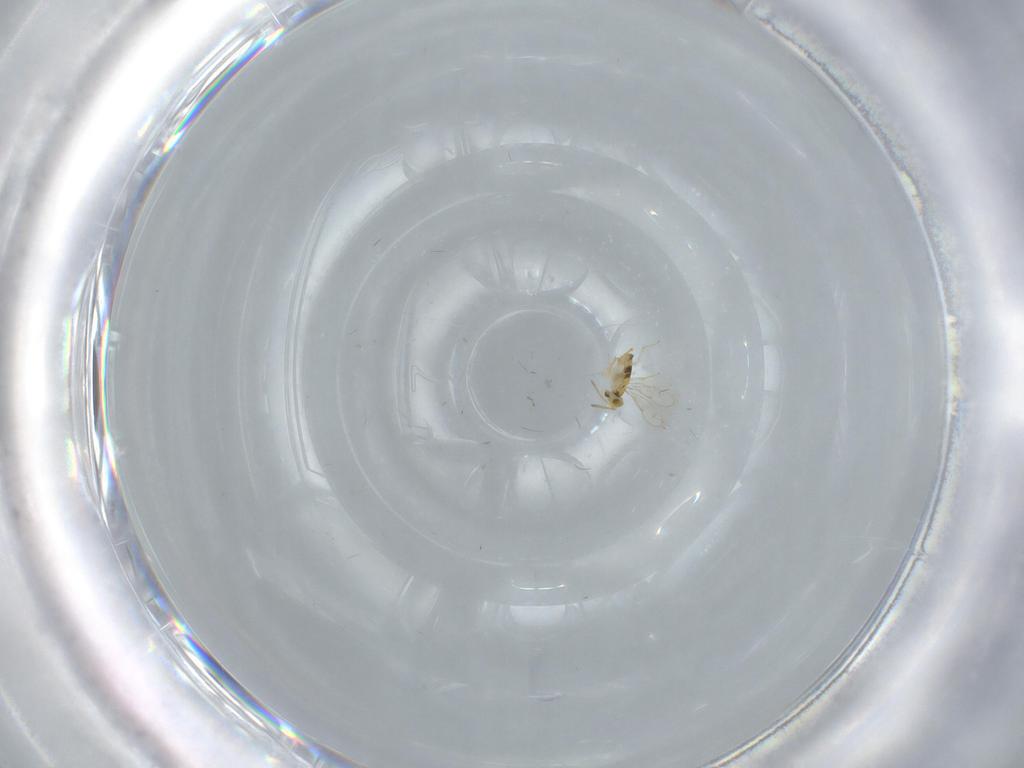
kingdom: Animalia
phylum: Arthropoda
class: Insecta
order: Hymenoptera
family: Aphelinidae
